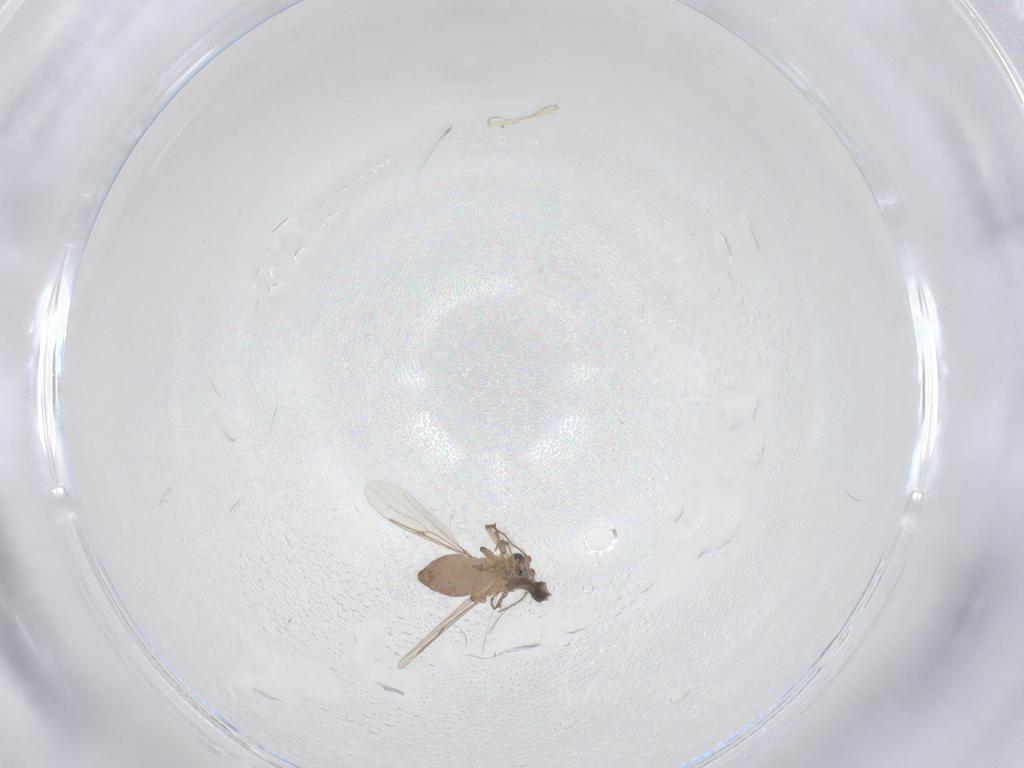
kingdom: Animalia
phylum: Arthropoda
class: Insecta
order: Diptera
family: Ceratopogonidae
